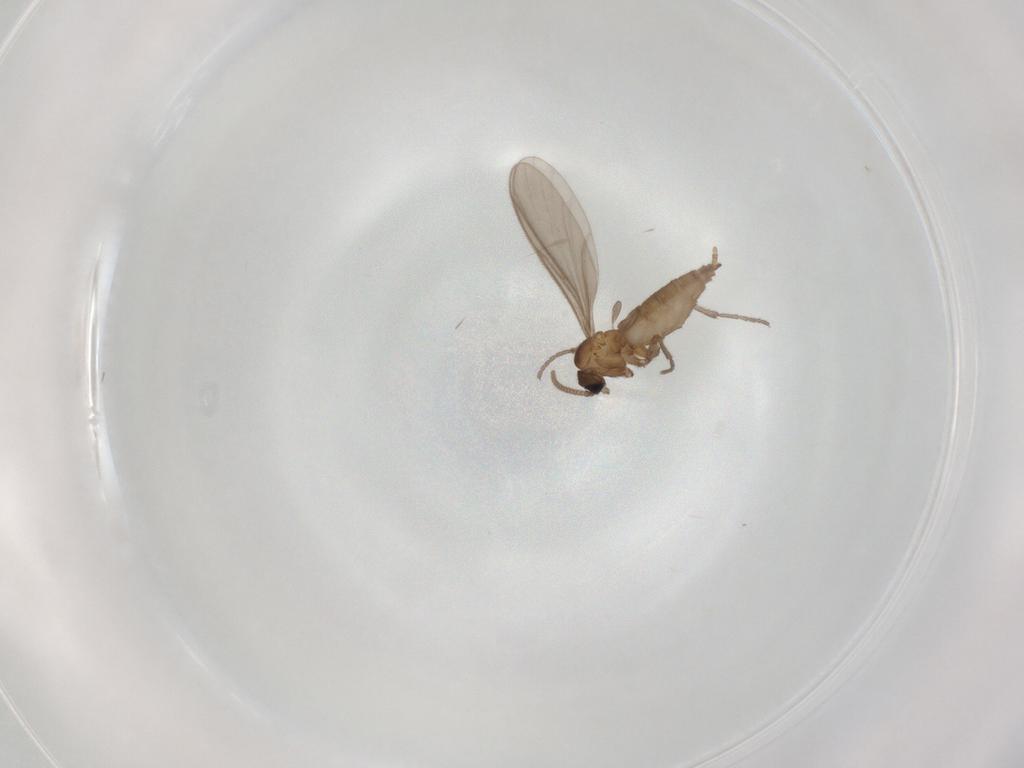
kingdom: Animalia
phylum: Arthropoda
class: Insecta
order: Diptera
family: Sciaridae
